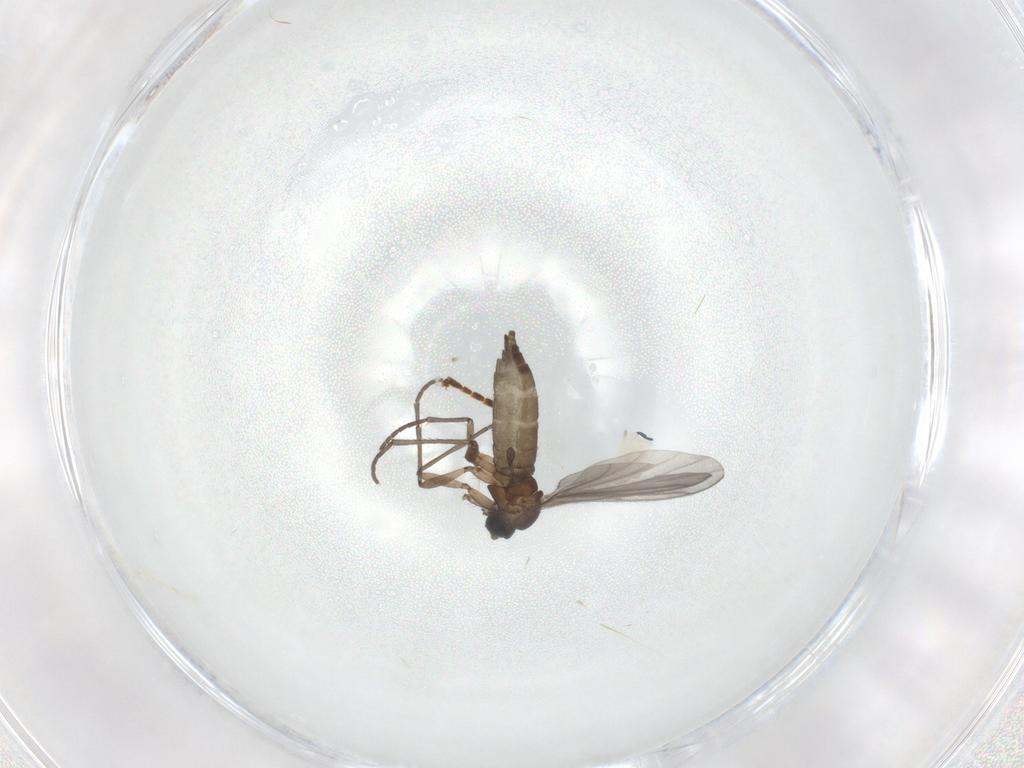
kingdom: Animalia
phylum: Arthropoda
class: Insecta
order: Diptera
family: Sciaridae
